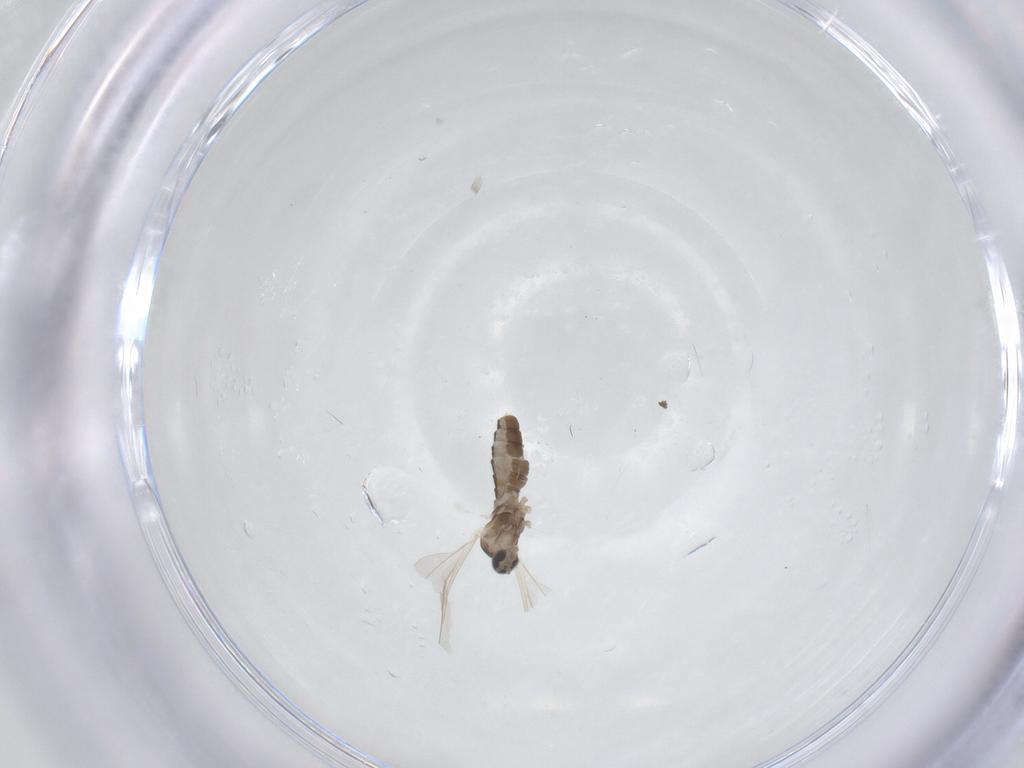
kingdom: Animalia
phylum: Arthropoda
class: Insecta
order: Diptera
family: Cecidomyiidae
